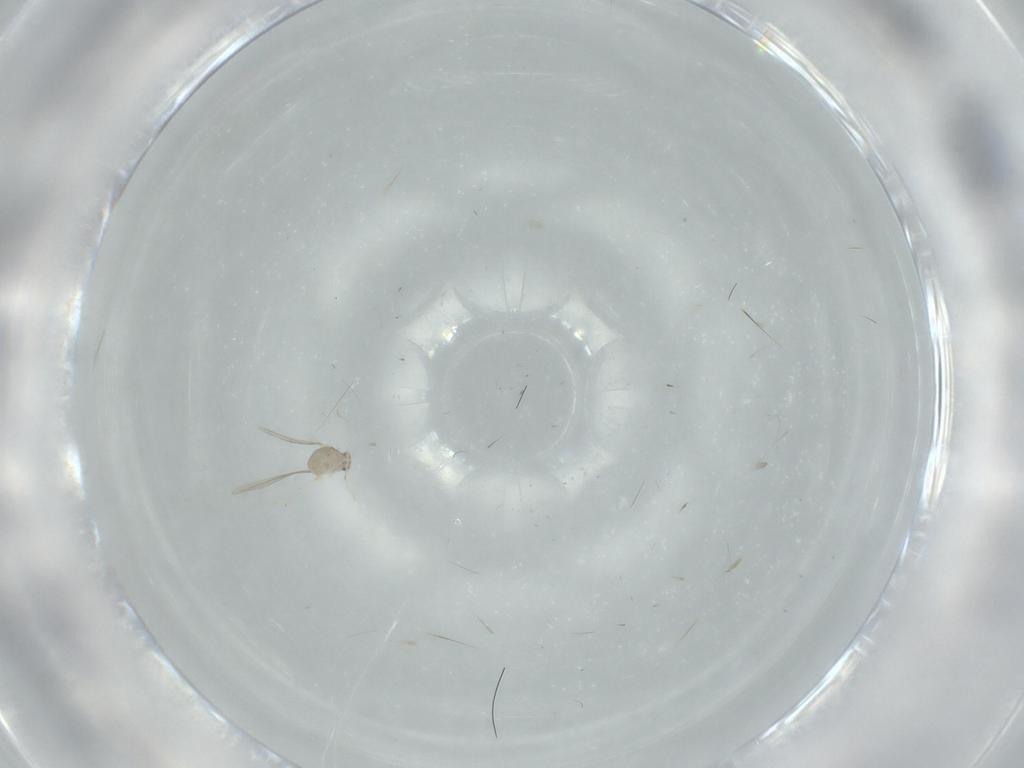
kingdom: Animalia
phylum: Arthropoda
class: Insecta
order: Diptera
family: Cecidomyiidae
